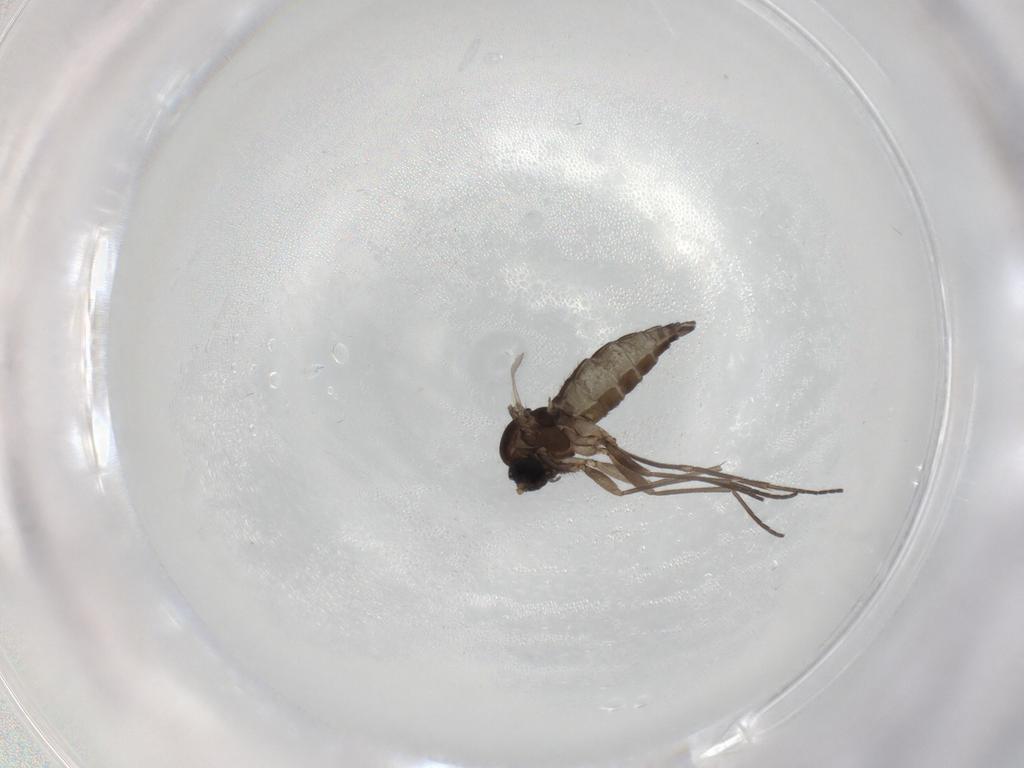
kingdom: Animalia
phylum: Arthropoda
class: Insecta
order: Diptera
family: Sciaridae
